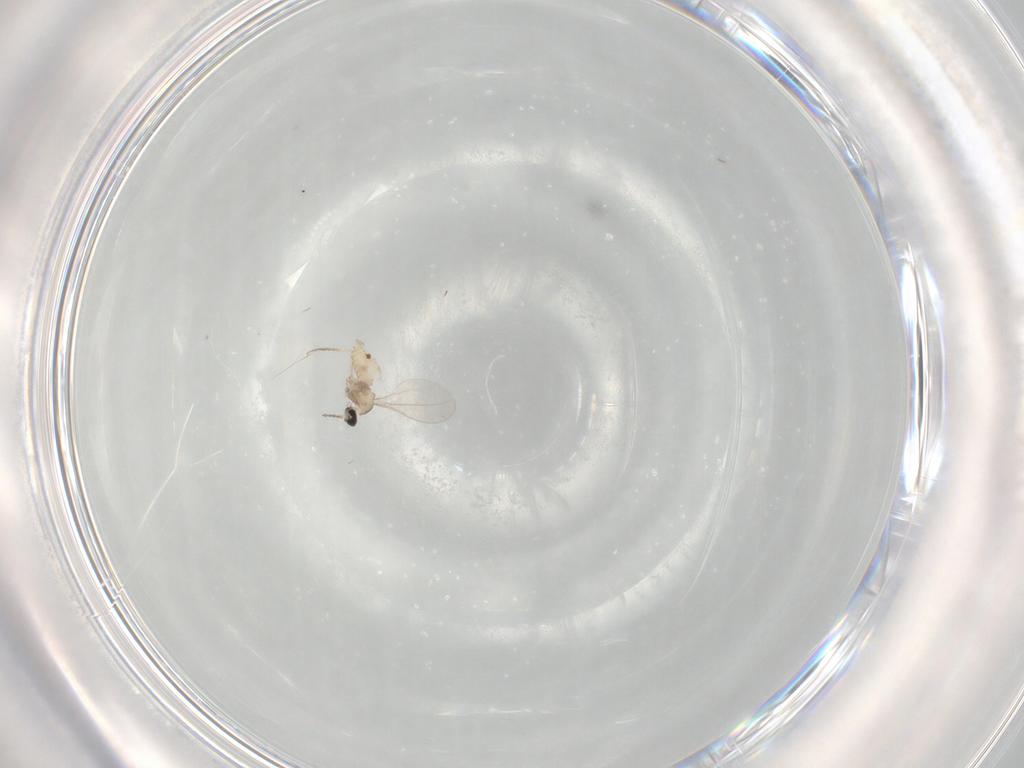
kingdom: Animalia
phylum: Arthropoda
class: Insecta
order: Diptera
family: Cecidomyiidae
